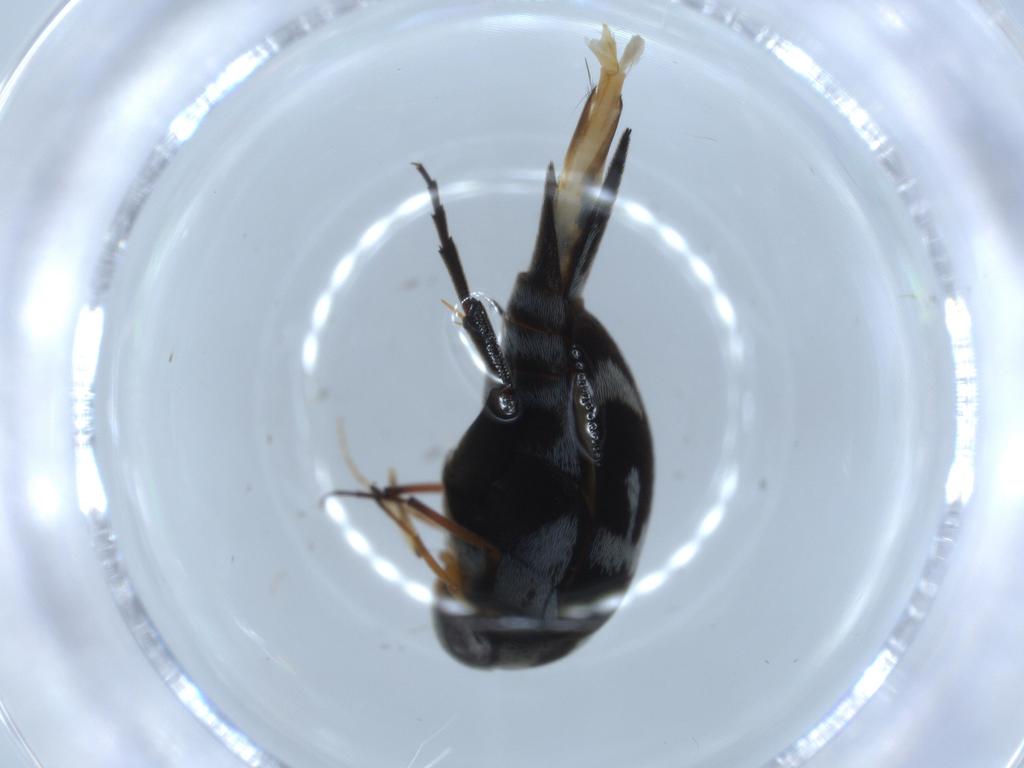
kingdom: Animalia
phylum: Arthropoda
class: Insecta
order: Coleoptera
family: Mordellidae
